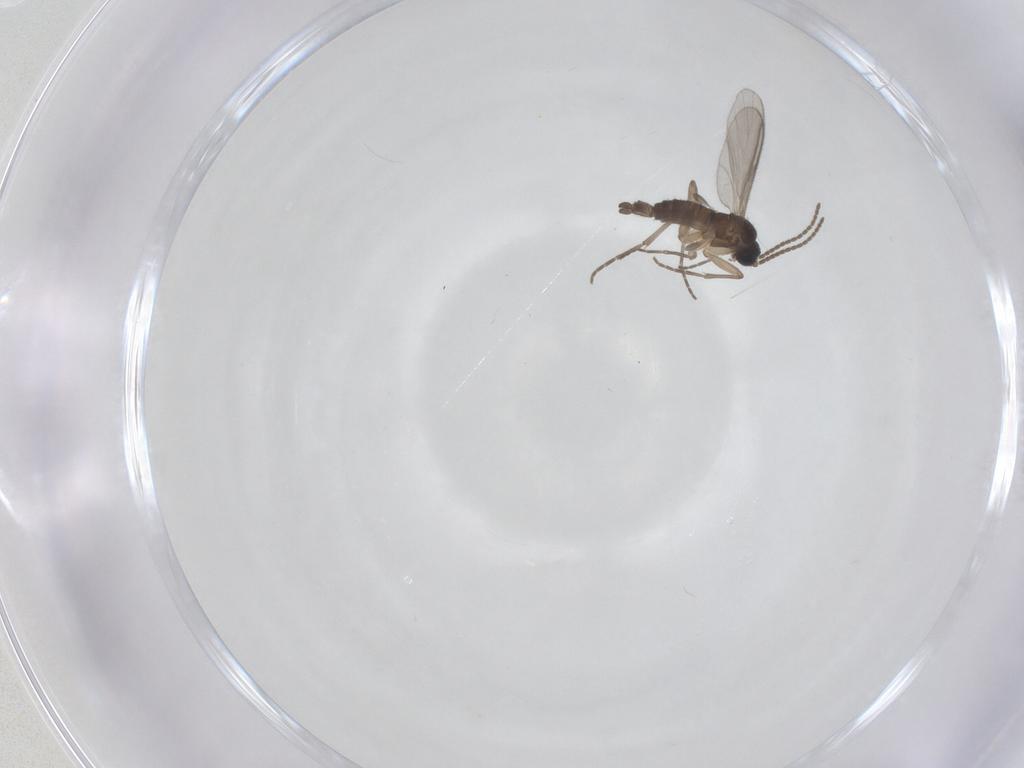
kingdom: Animalia
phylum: Arthropoda
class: Insecta
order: Diptera
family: Sciaridae
